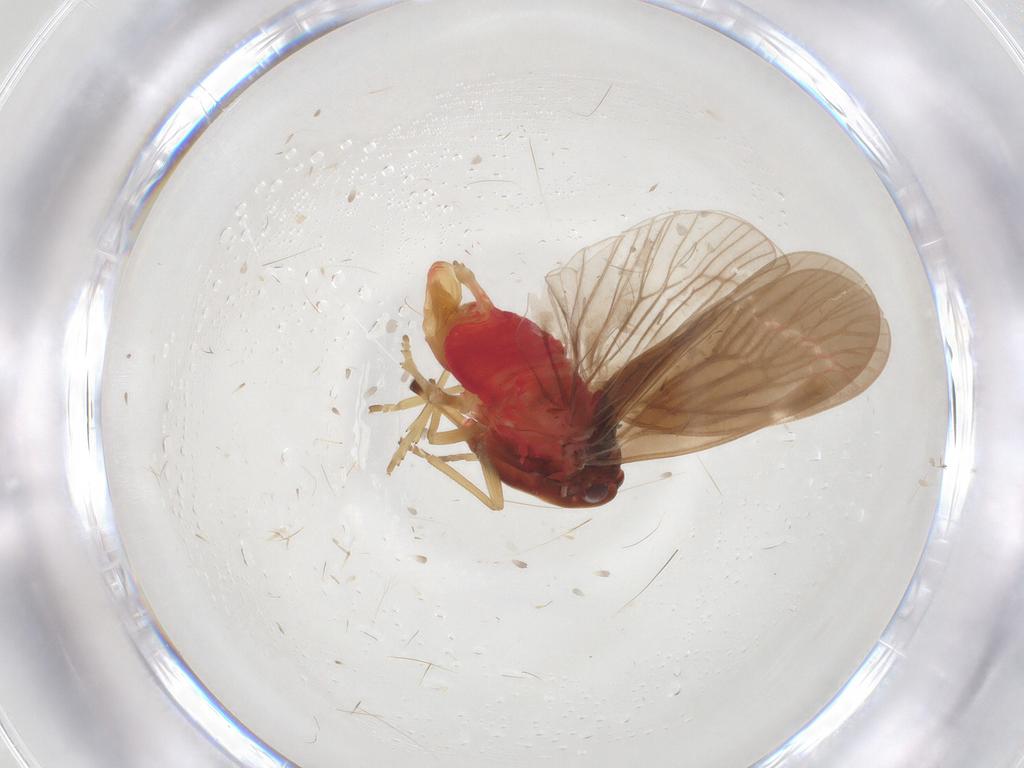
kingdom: Animalia
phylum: Arthropoda
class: Insecta
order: Hemiptera
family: Derbidae
